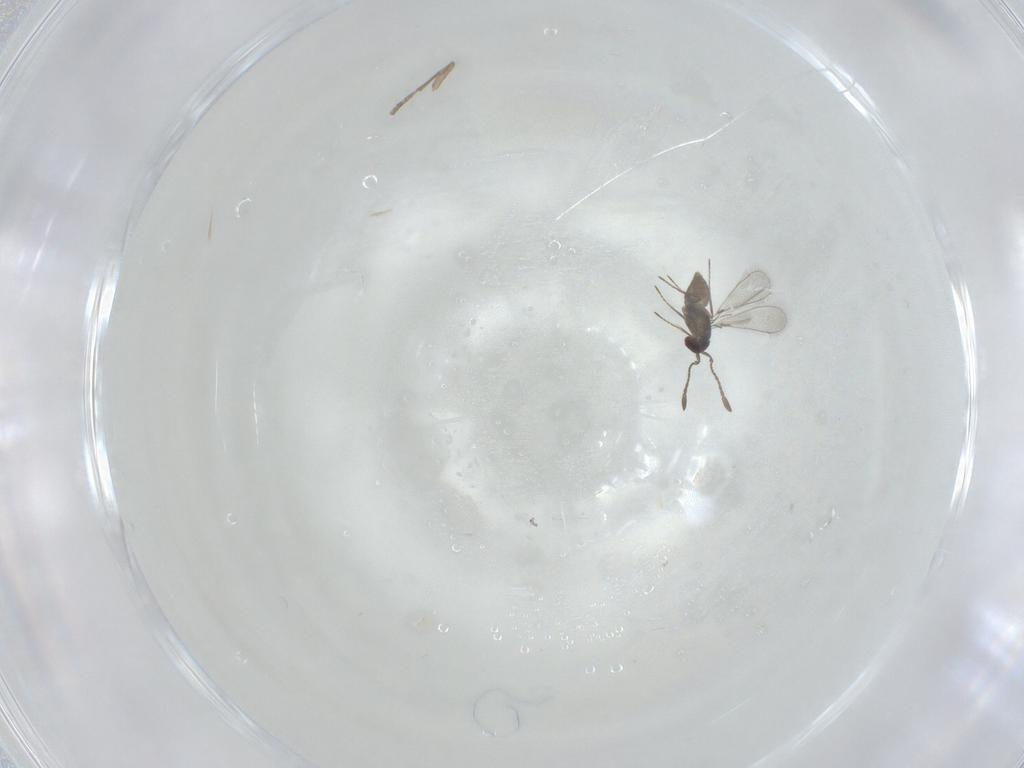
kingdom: Animalia
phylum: Arthropoda
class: Insecta
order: Hymenoptera
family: Mymaridae
